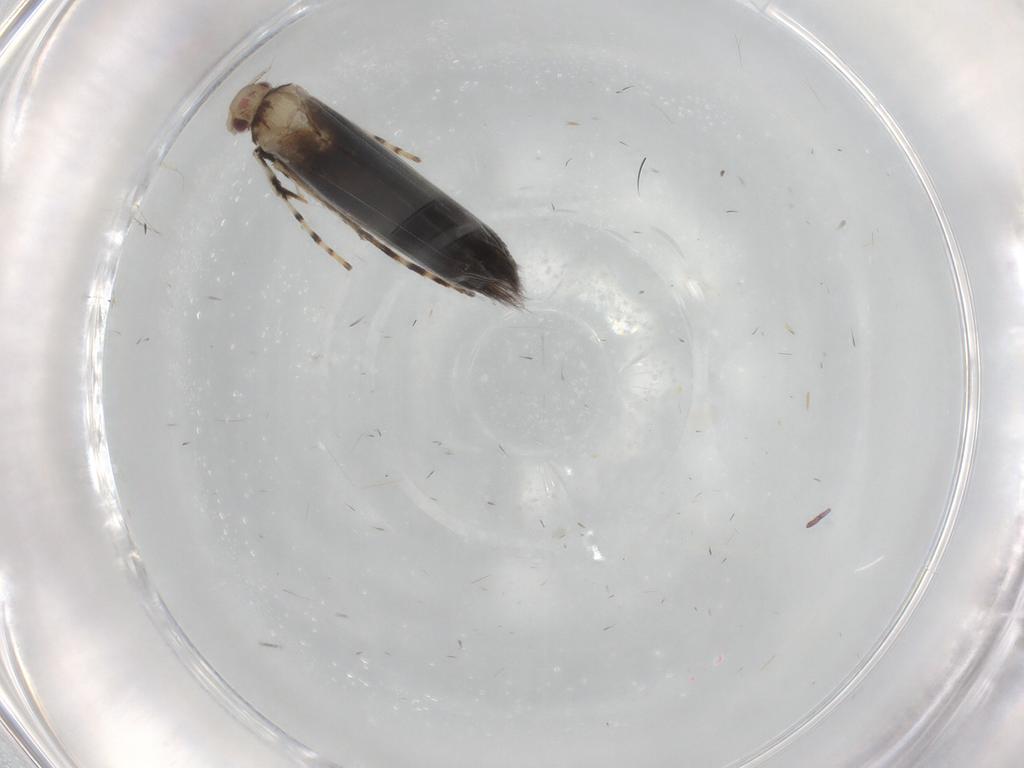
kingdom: Animalia
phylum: Arthropoda
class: Insecta
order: Lepidoptera
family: Gracillariidae
